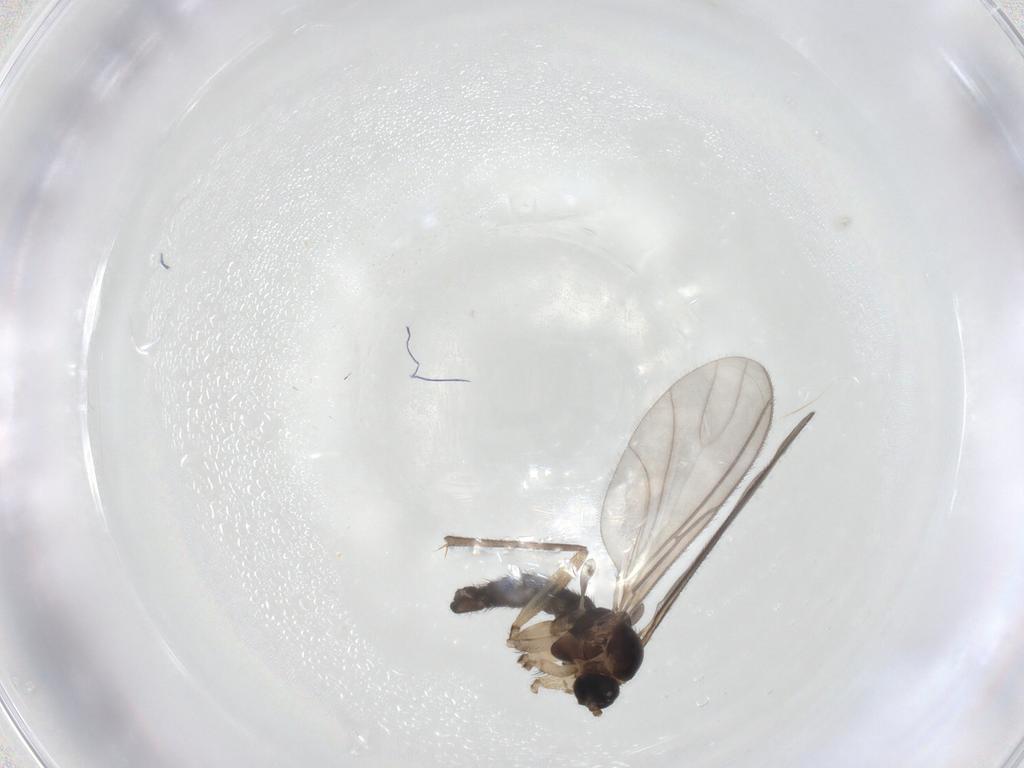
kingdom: Animalia
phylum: Arthropoda
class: Insecta
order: Diptera
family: Sciaridae
